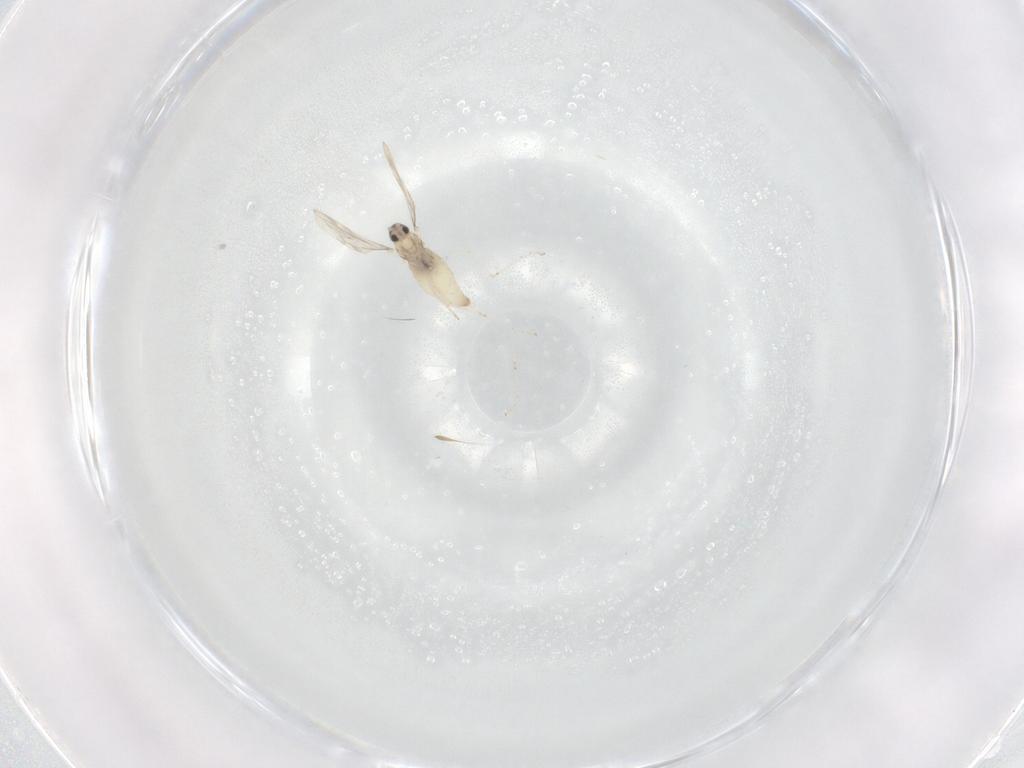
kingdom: Animalia
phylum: Arthropoda
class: Insecta
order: Diptera
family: Cecidomyiidae
